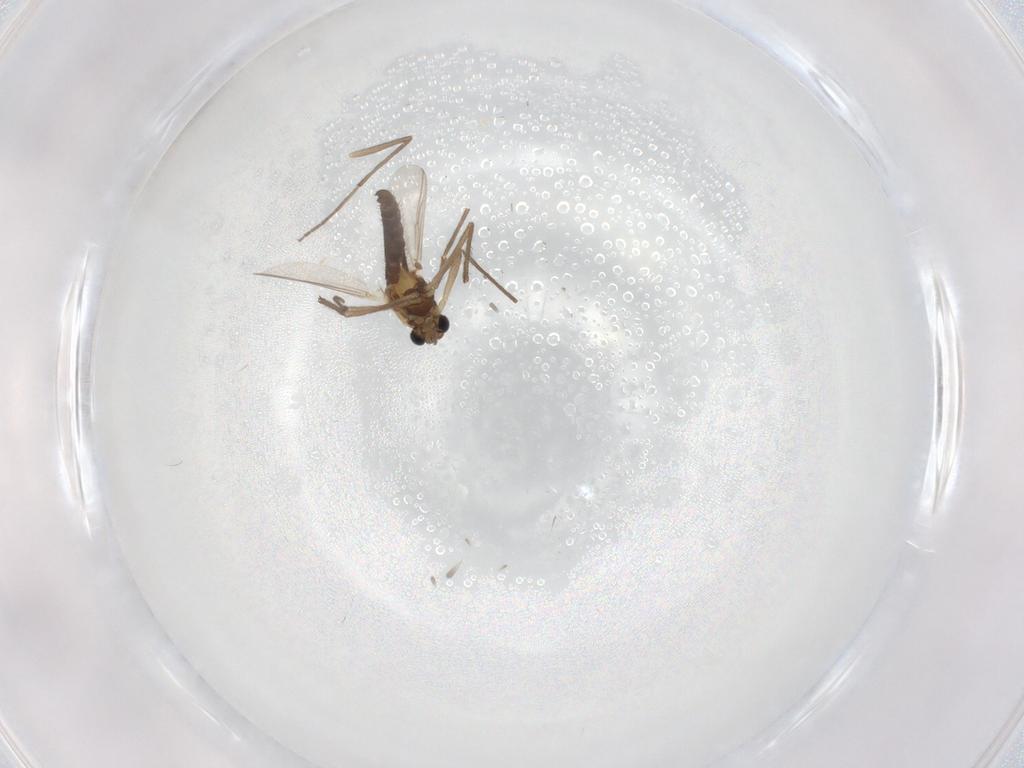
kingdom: Animalia
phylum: Arthropoda
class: Insecta
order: Diptera
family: Chironomidae
